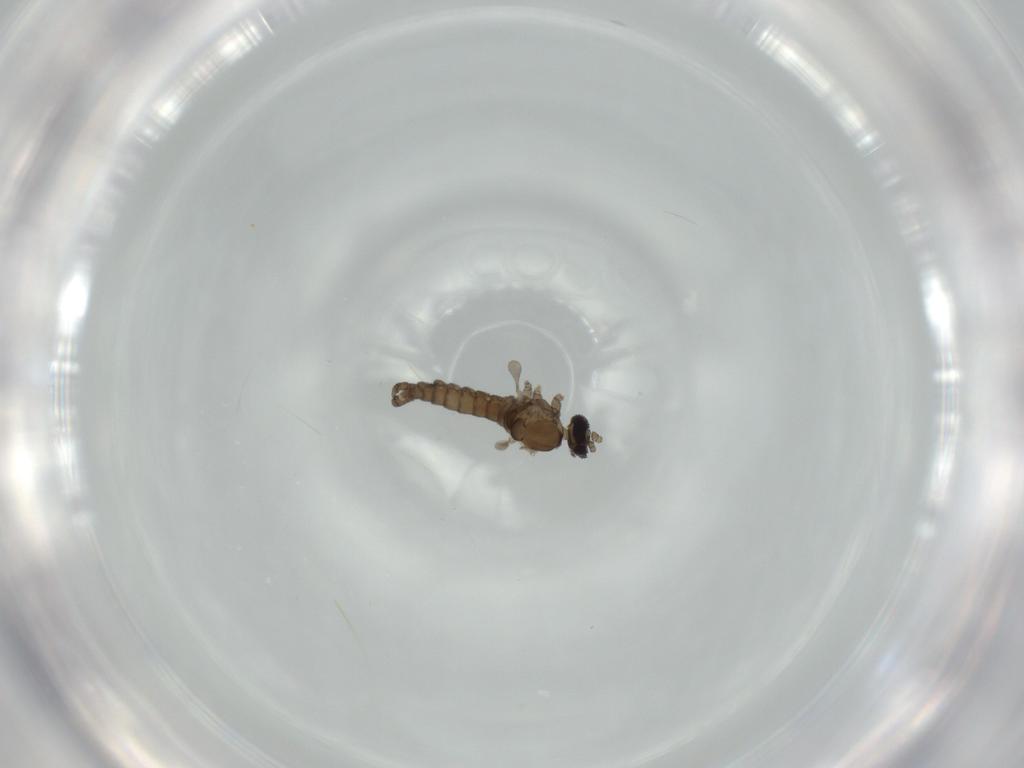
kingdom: Animalia
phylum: Arthropoda
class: Insecta
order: Diptera
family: Cecidomyiidae
